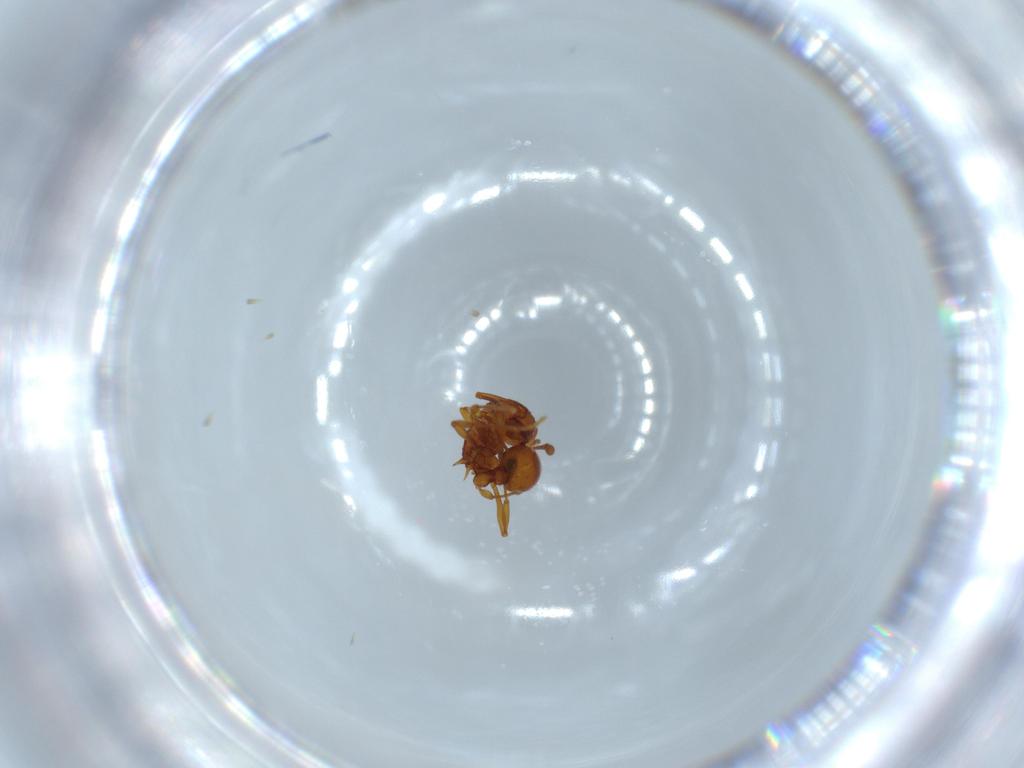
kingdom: Animalia
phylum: Arthropoda
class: Insecta
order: Hymenoptera
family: Formicidae
